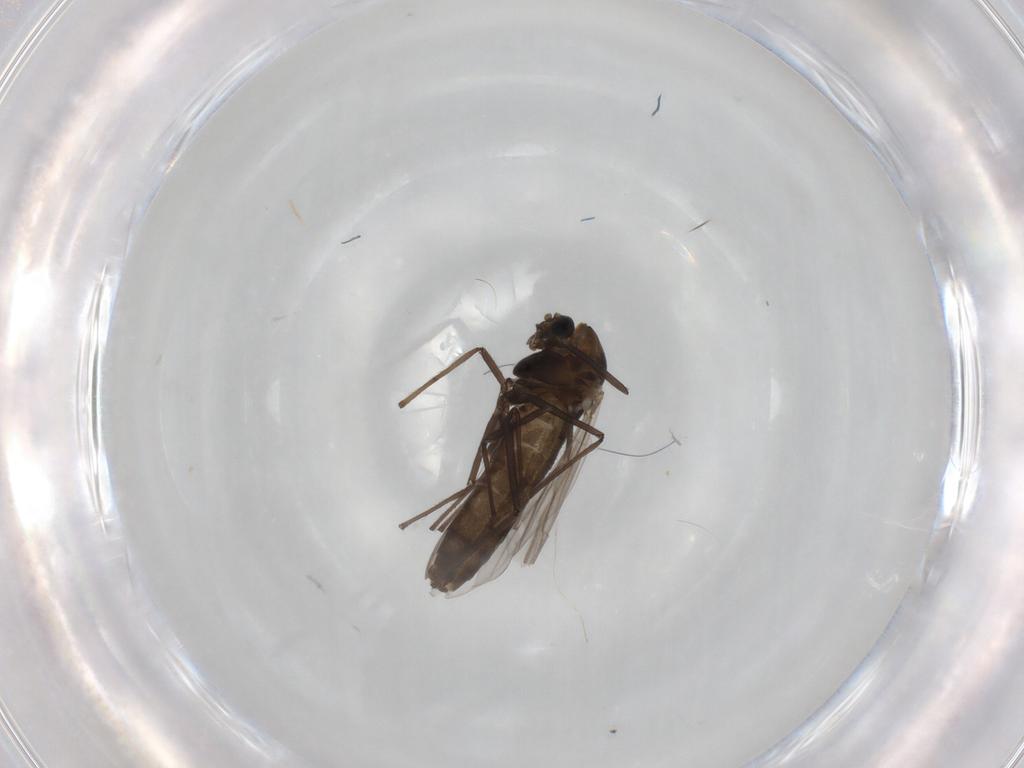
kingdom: Animalia
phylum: Arthropoda
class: Insecta
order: Diptera
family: Chironomidae
